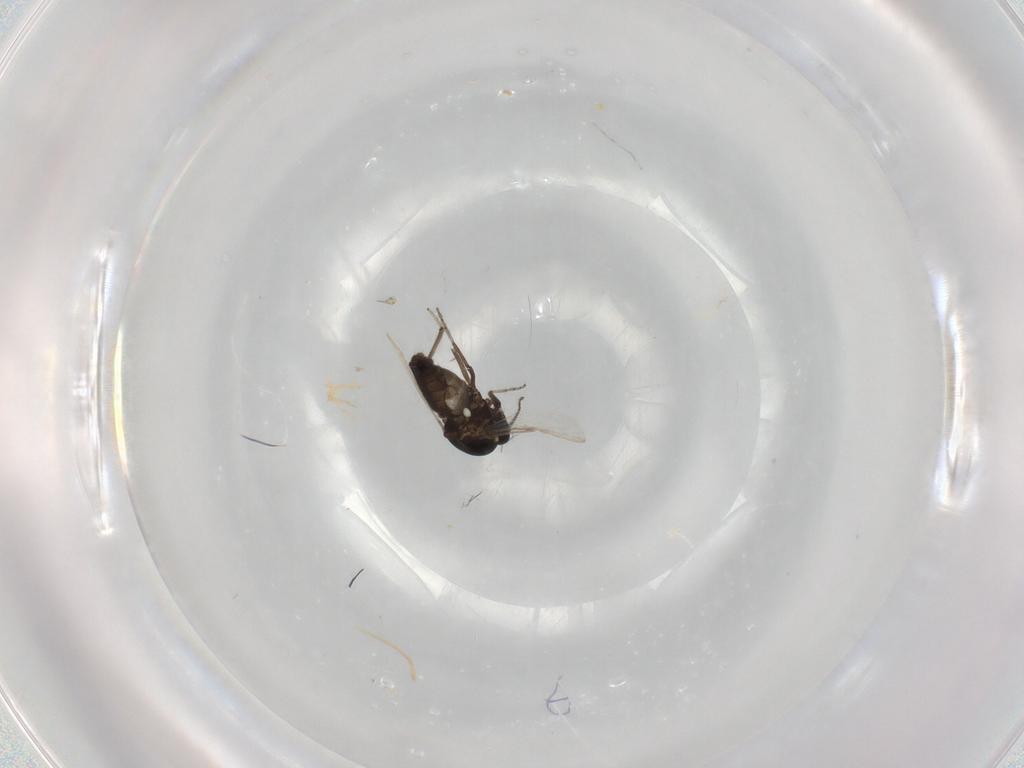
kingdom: Animalia
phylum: Arthropoda
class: Insecta
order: Diptera
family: Ceratopogonidae
